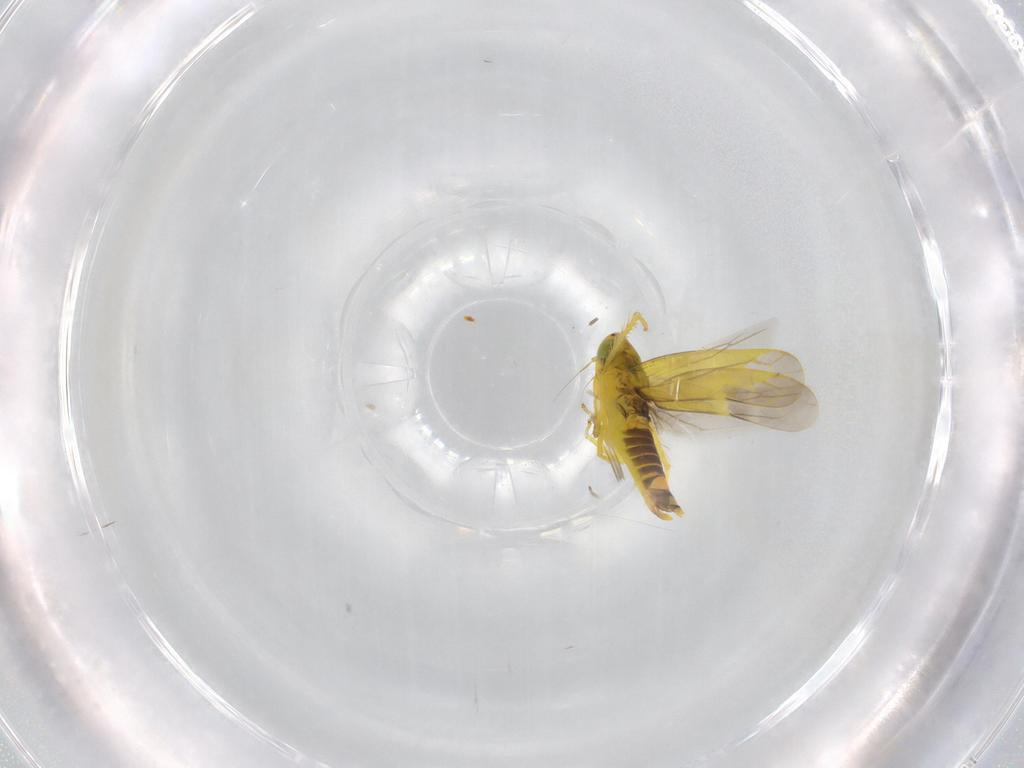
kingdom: Animalia
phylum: Arthropoda
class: Insecta
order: Hemiptera
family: Cicadellidae
